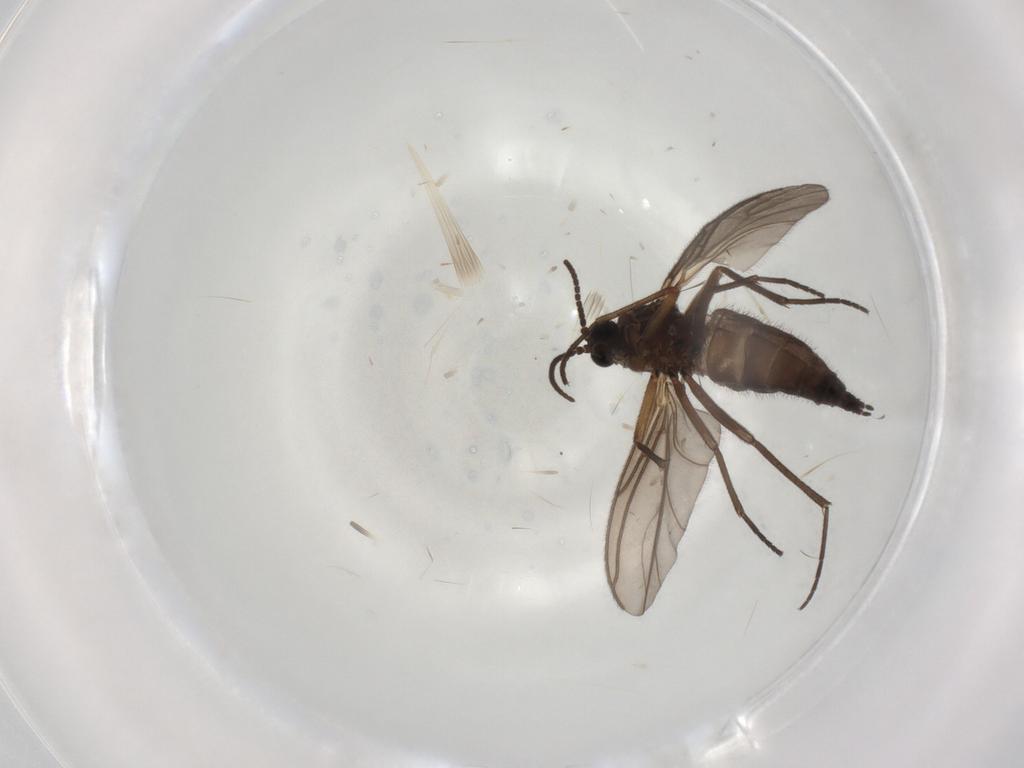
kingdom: Animalia
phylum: Arthropoda
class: Insecta
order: Diptera
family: Sciaridae
